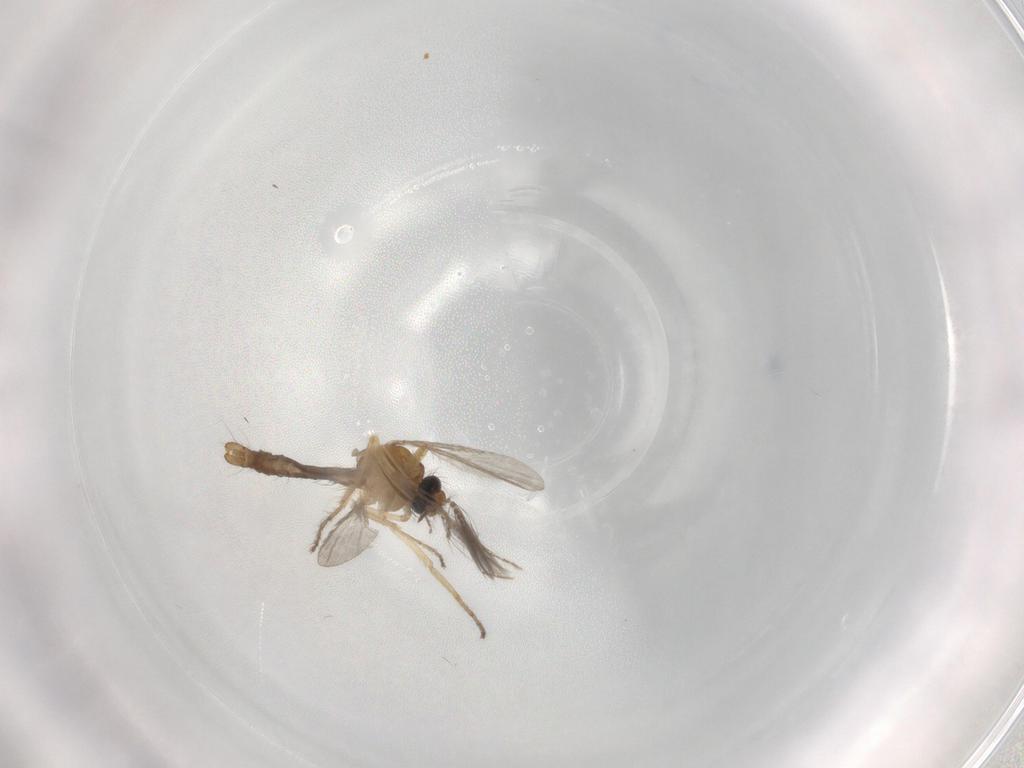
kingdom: Animalia
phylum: Arthropoda
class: Insecta
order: Diptera
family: Ceratopogonidae
